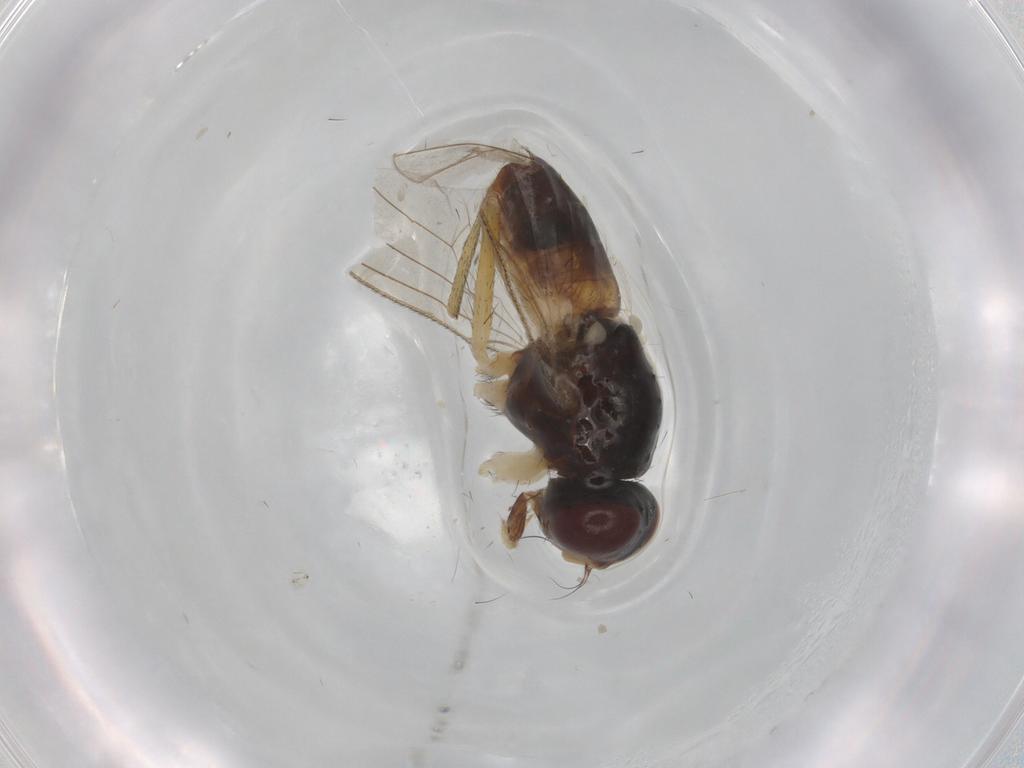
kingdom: Animalia
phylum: Arthropoda
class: Insecta
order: Diptera
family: Muscidae
